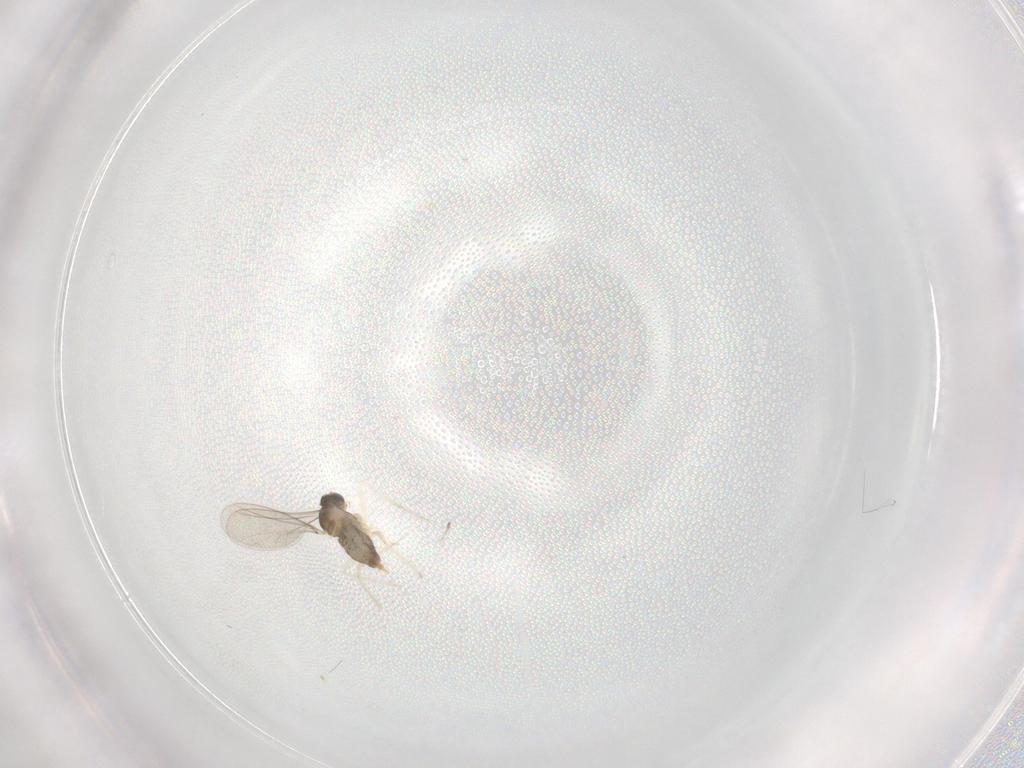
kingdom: Animalia
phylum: Arthropoda
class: Insecta
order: Diptera
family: Cecidomyiidae
